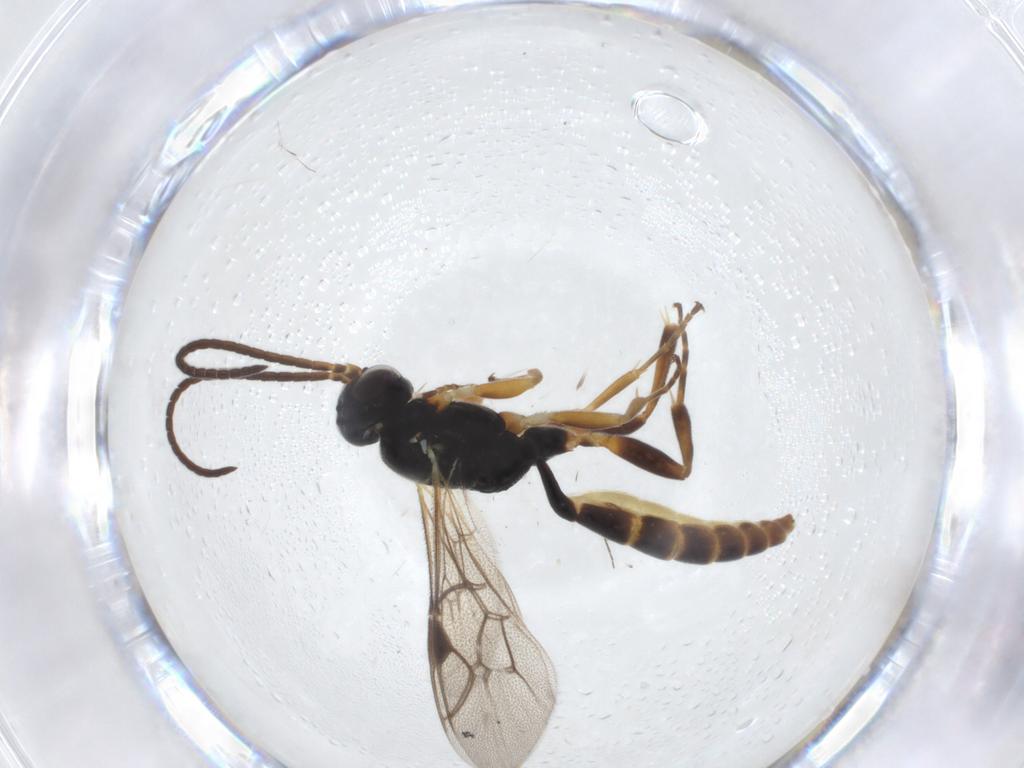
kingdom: Animalia
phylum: Arthropoda
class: Insecta
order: Hymenoptera
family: Ichneumonidae
